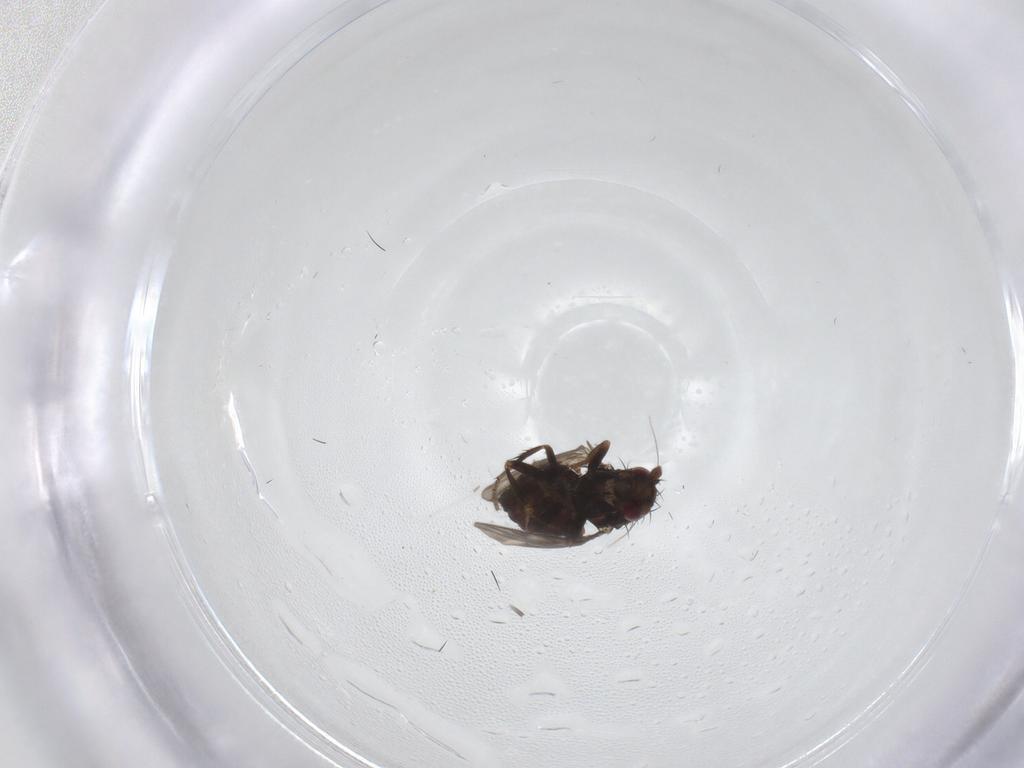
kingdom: Animalia
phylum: Arthropoda
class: Insecta
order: Diptera
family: Sphaeroceridae
